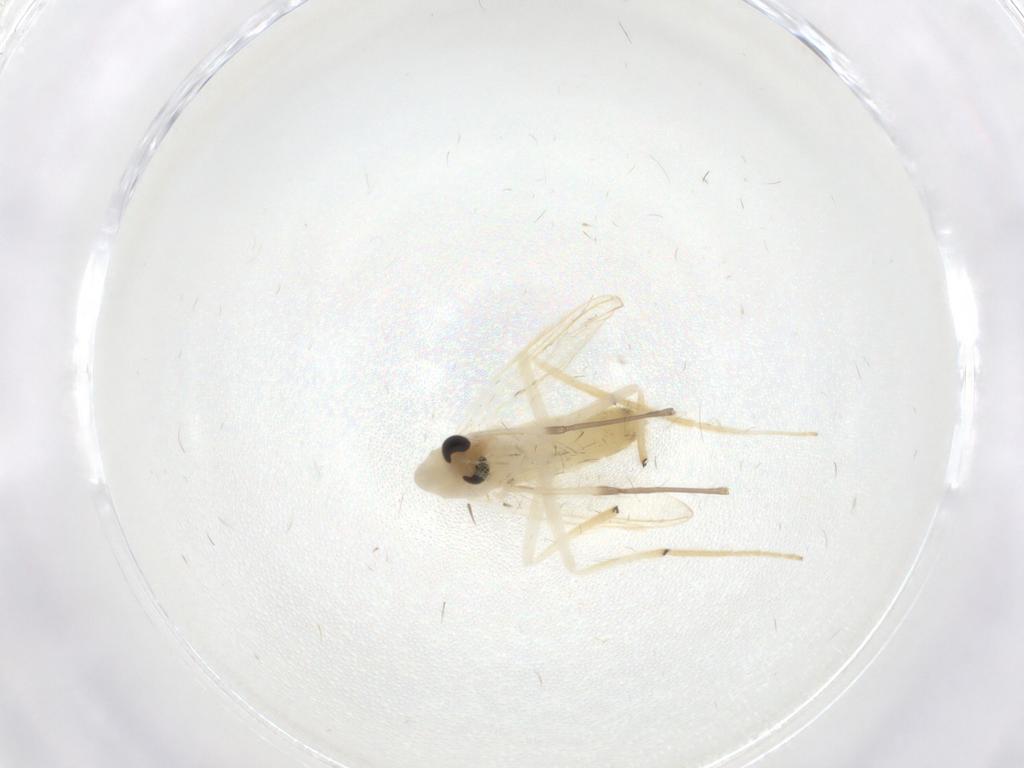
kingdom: Animalia
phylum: Arthropoda
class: Insecta
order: Diptera
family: Chironomidae
